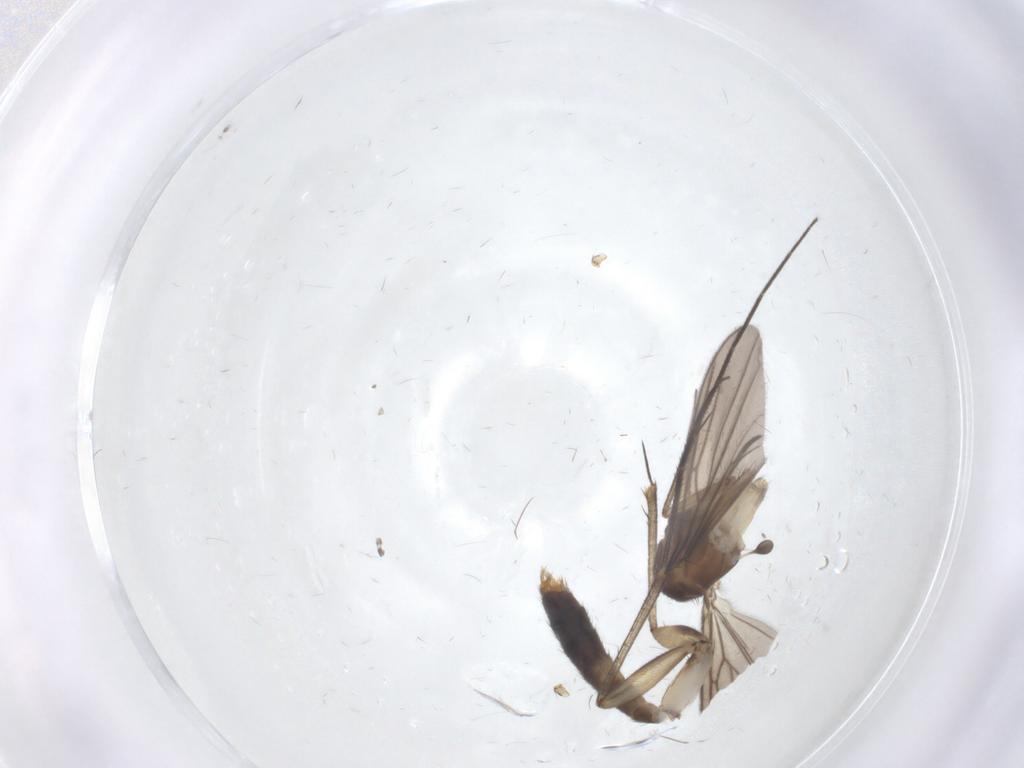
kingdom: Animalia
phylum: Arthropoda
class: Insecta
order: Diptera
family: Mycetophilidae
